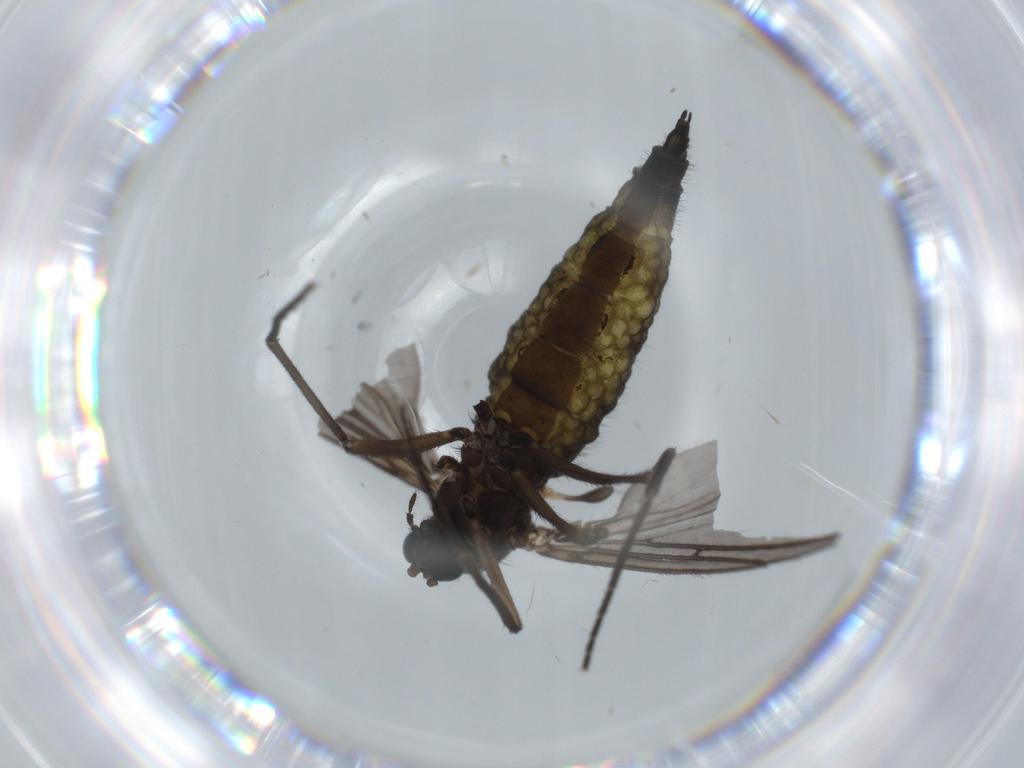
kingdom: Animalia
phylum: Arthropoda
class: Insecta
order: Diptera
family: Sciaridae
